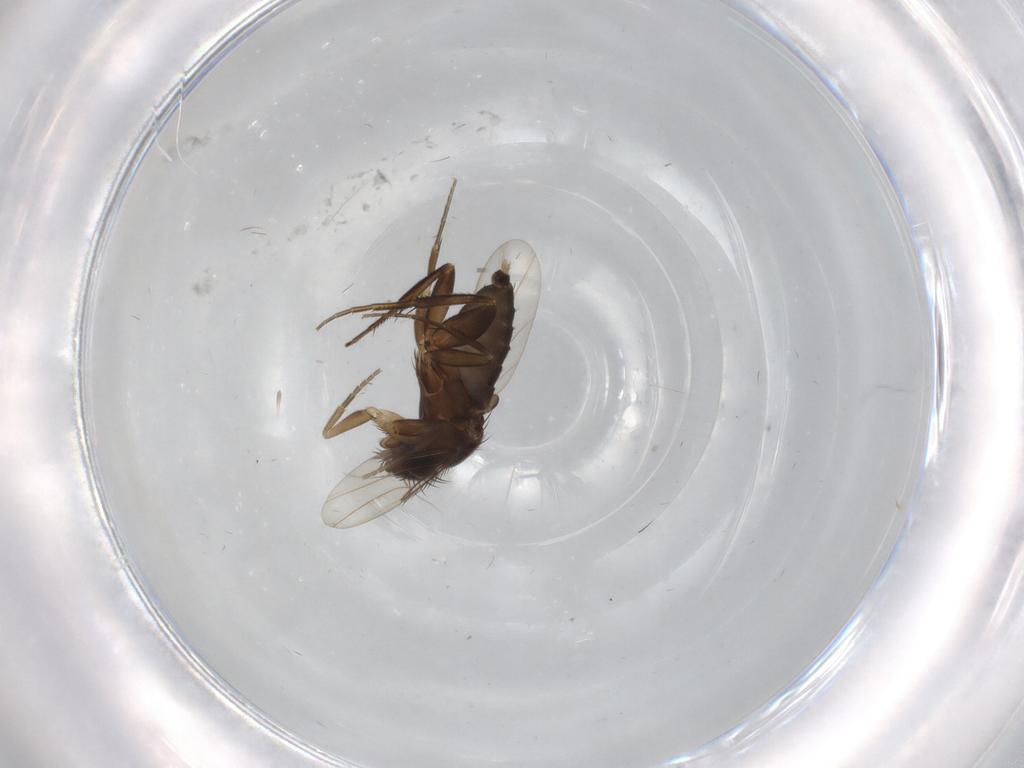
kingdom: Animalia
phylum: Arthropoda
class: Insecta
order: Diptera
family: Phoridae
